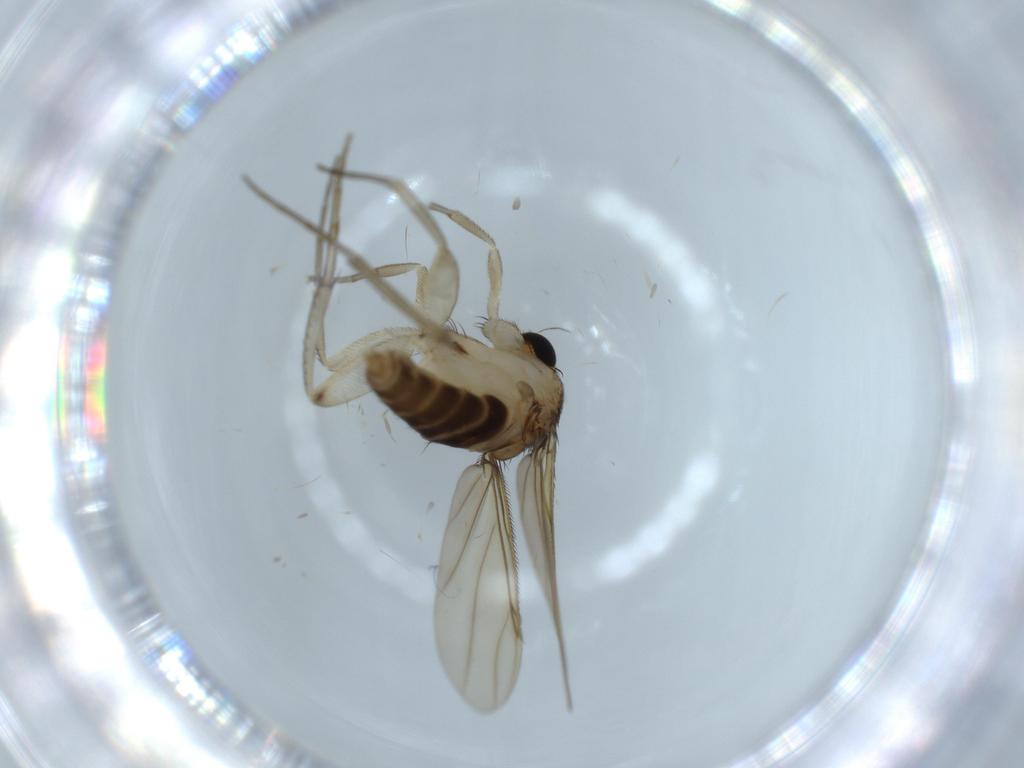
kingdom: Animalia
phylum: Arthropoda
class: Insecta
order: Diptera
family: Phoridae
